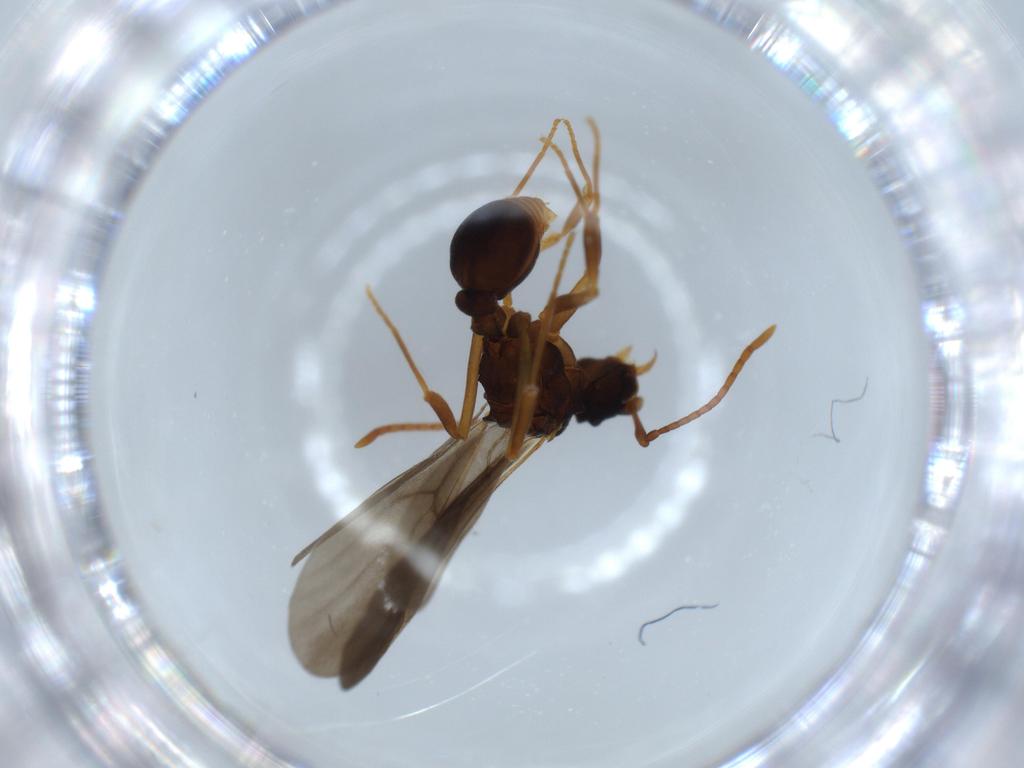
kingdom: Animalia
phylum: Arthropoda
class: Insecta
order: Hymenoptera
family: Formicidae
